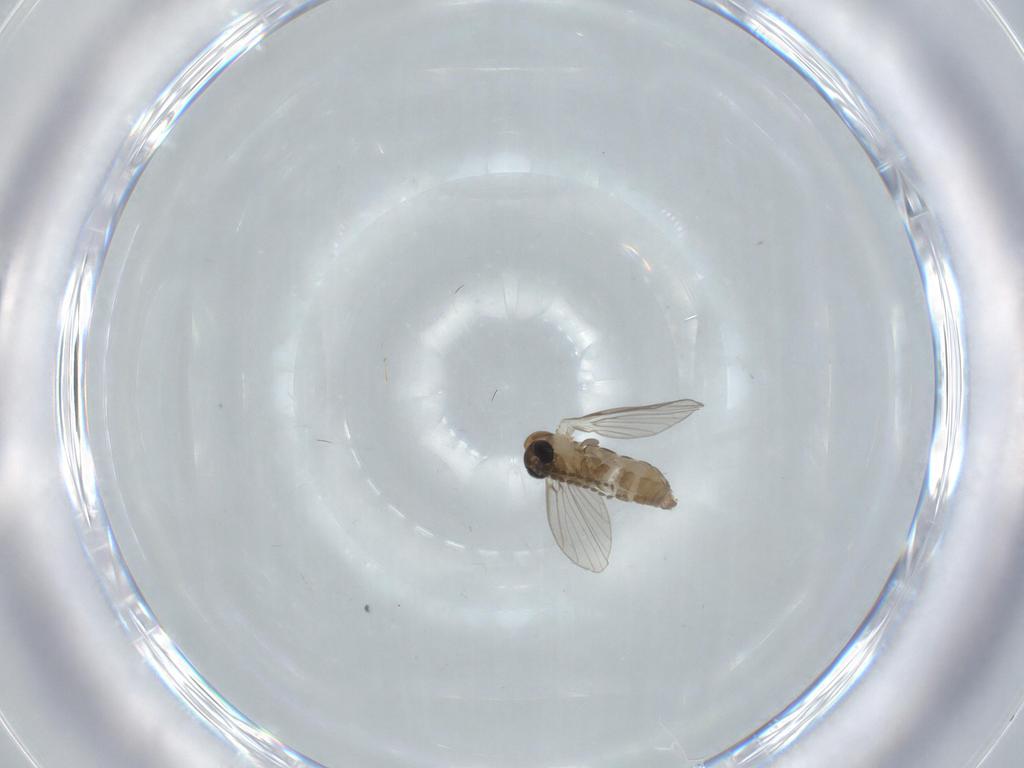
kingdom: Animalia
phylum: Arthropoda
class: Insecta
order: Diptera
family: Psychodidae
